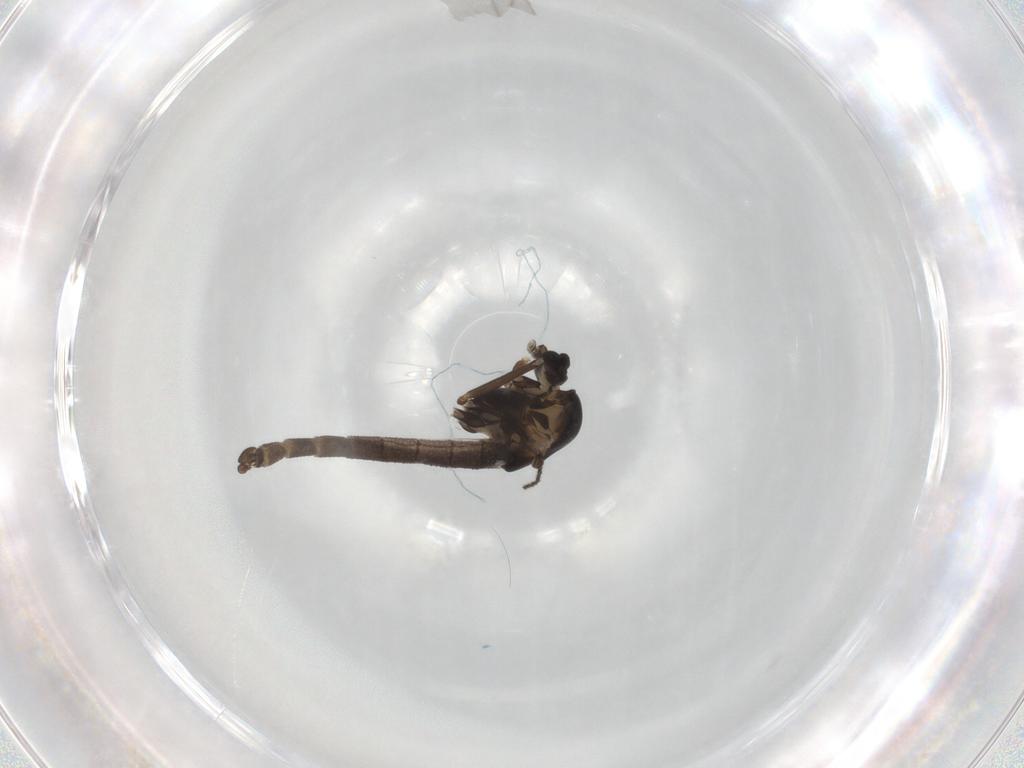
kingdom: Animalia
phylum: Arthropoda
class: Insecta
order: Diptera
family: Chironomidae
